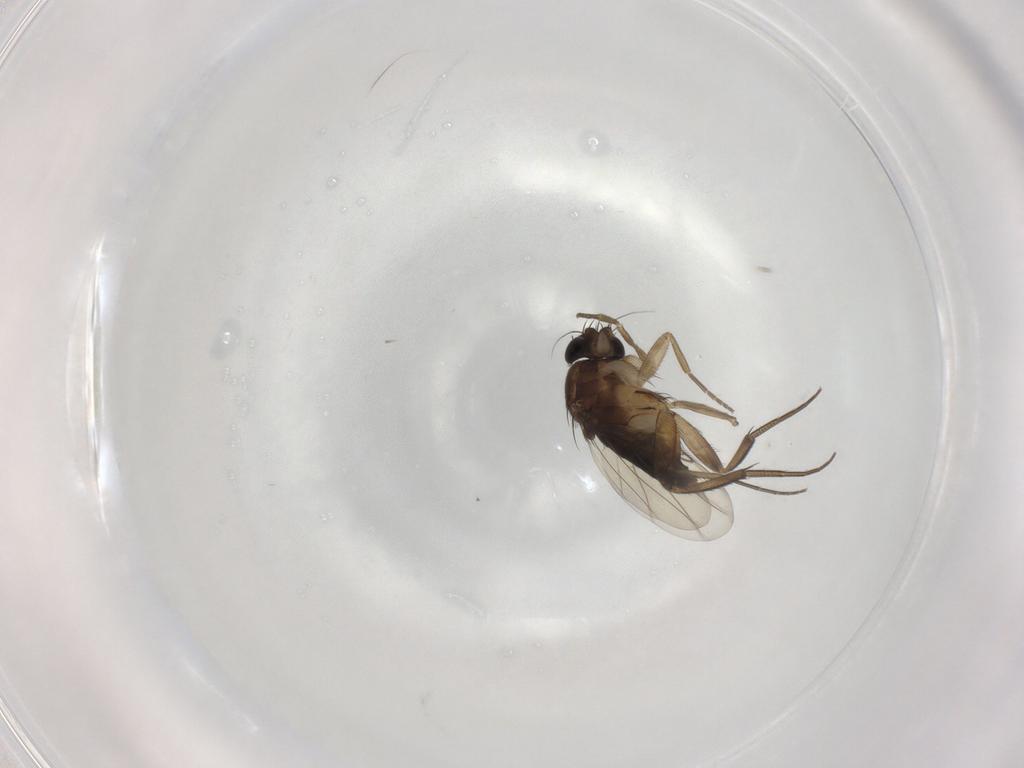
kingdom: Animalia
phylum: Arthropoda
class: Insecta
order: Diptera
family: Phoridae
